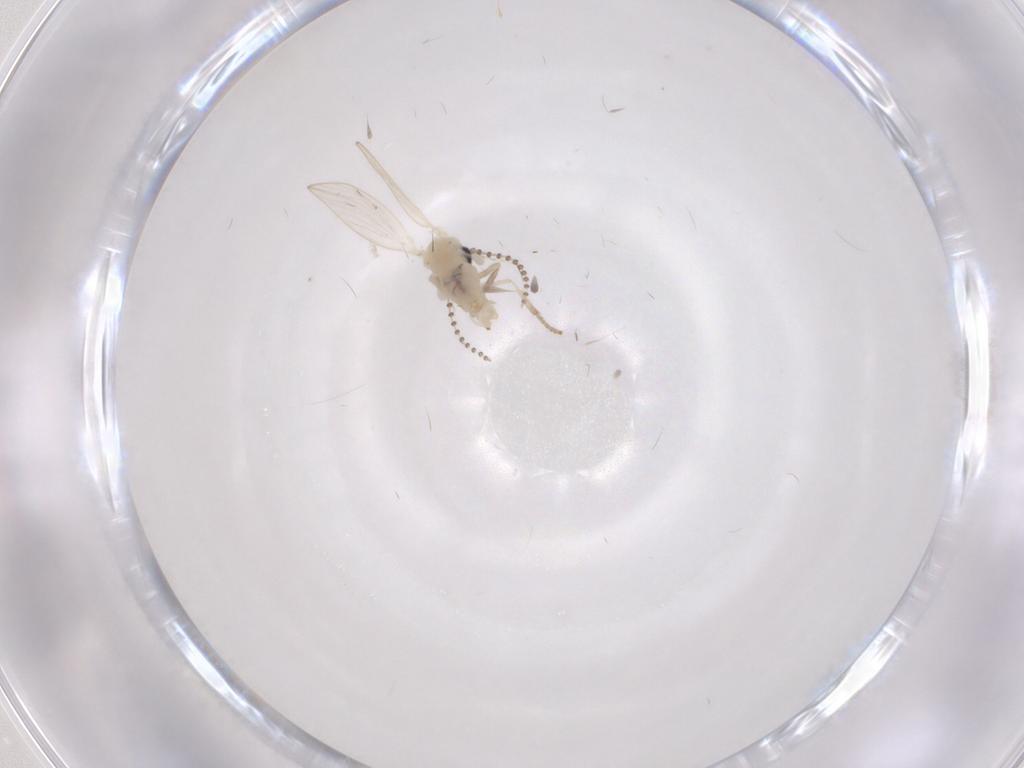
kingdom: Animalia
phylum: Arthropoda
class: Insecta
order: Diptera
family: Psychodidae
